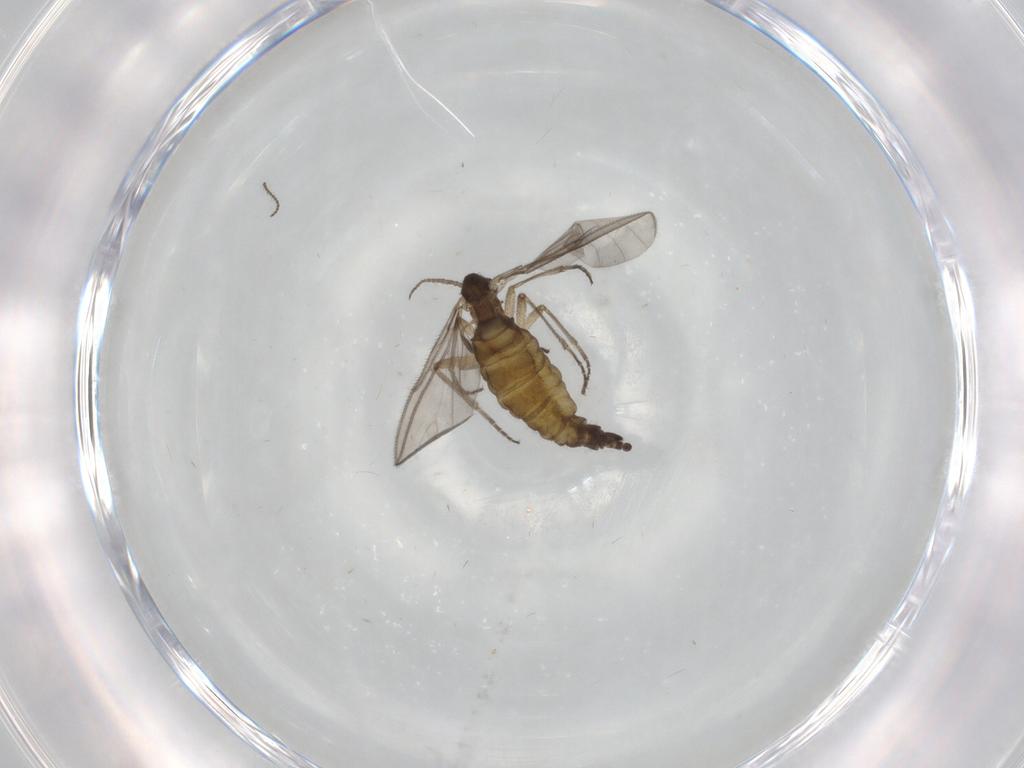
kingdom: Animalia
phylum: Arthropoda
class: Insecta
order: Diptera
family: Sciaridae
